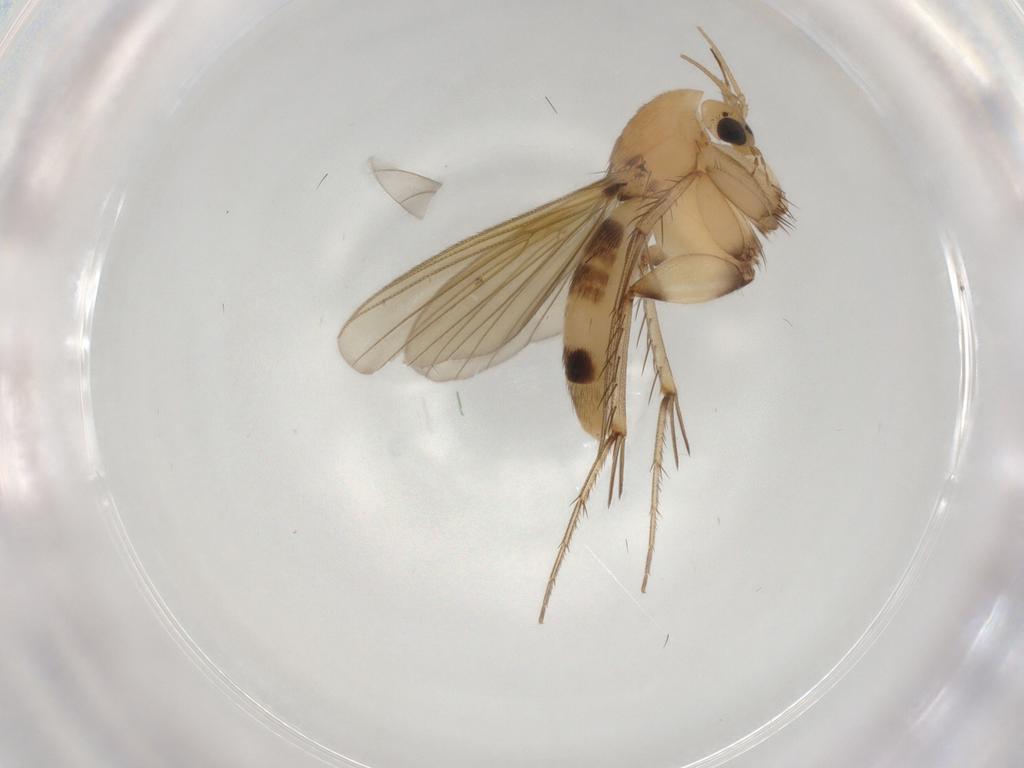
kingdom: Animalia
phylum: Arthropoda
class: Insecta
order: Diptera
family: Mycetophilidae
